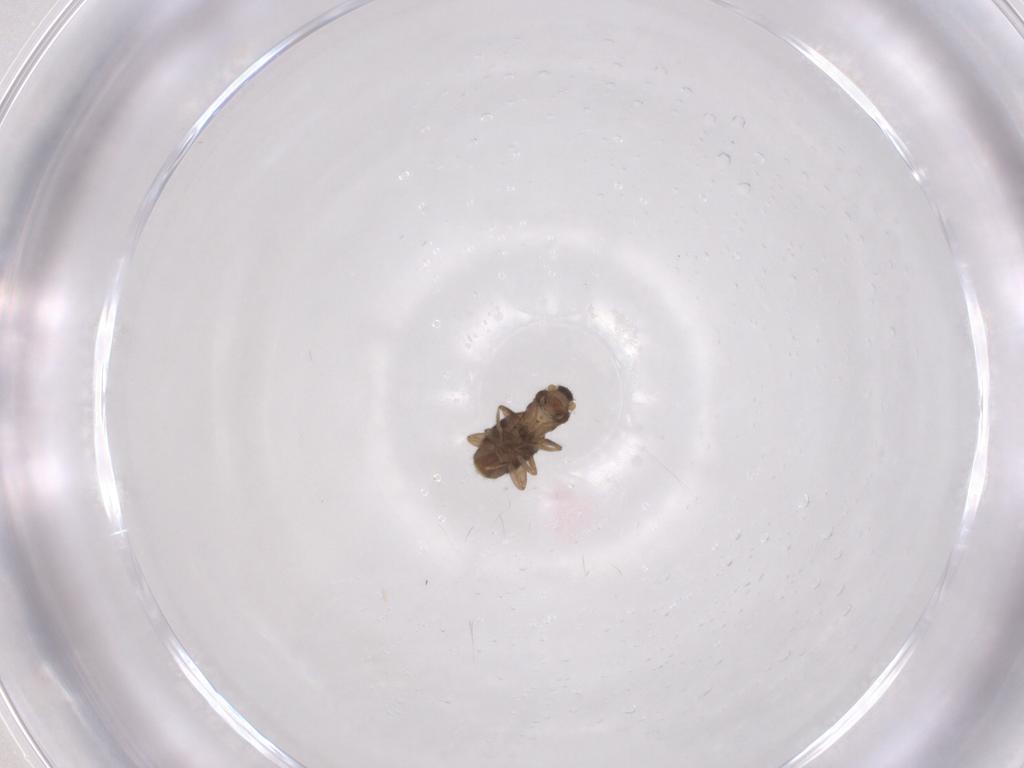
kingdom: Animalia
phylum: Arthropoda
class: Insecta
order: Diptera
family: Phoridae
